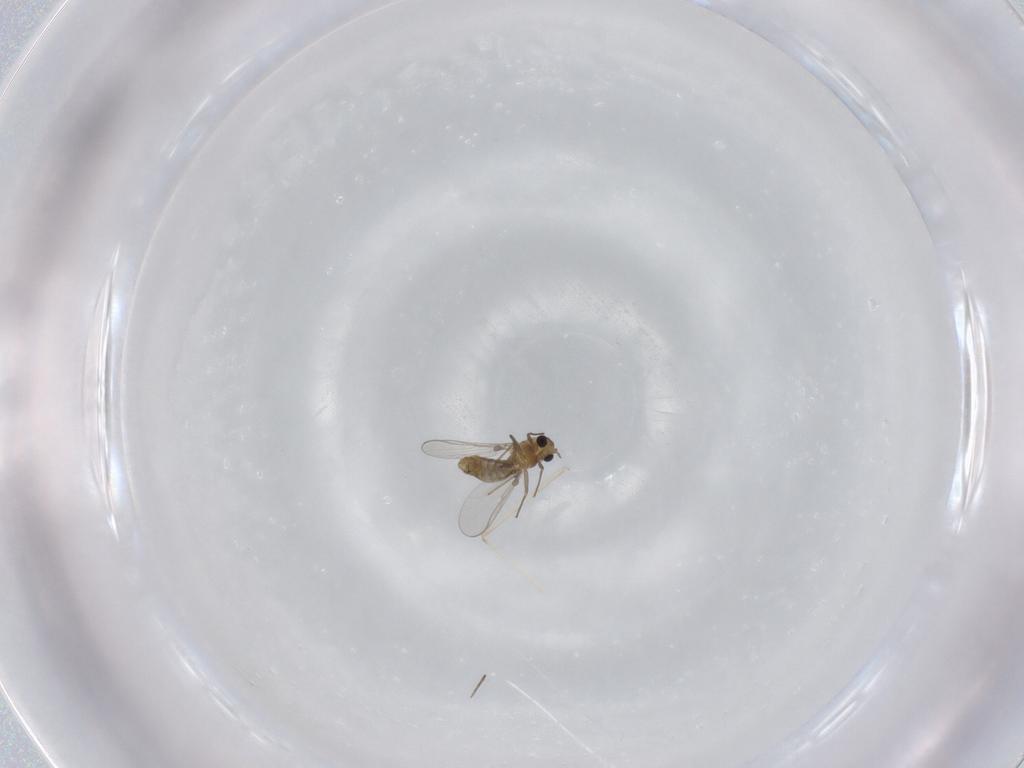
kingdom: Animalia
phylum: Arthropoda
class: Insecta
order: Diptera
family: Chironomidae
